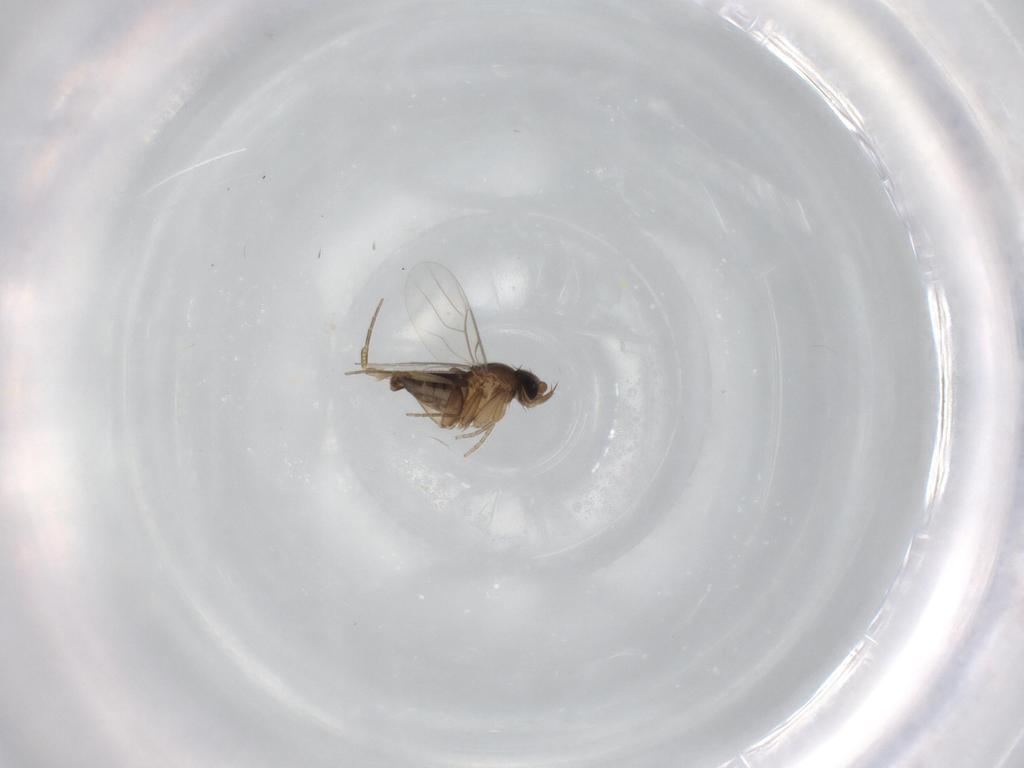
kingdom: Animalia
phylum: Arthropoda
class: Insecta
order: Diptera
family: Phoridae
